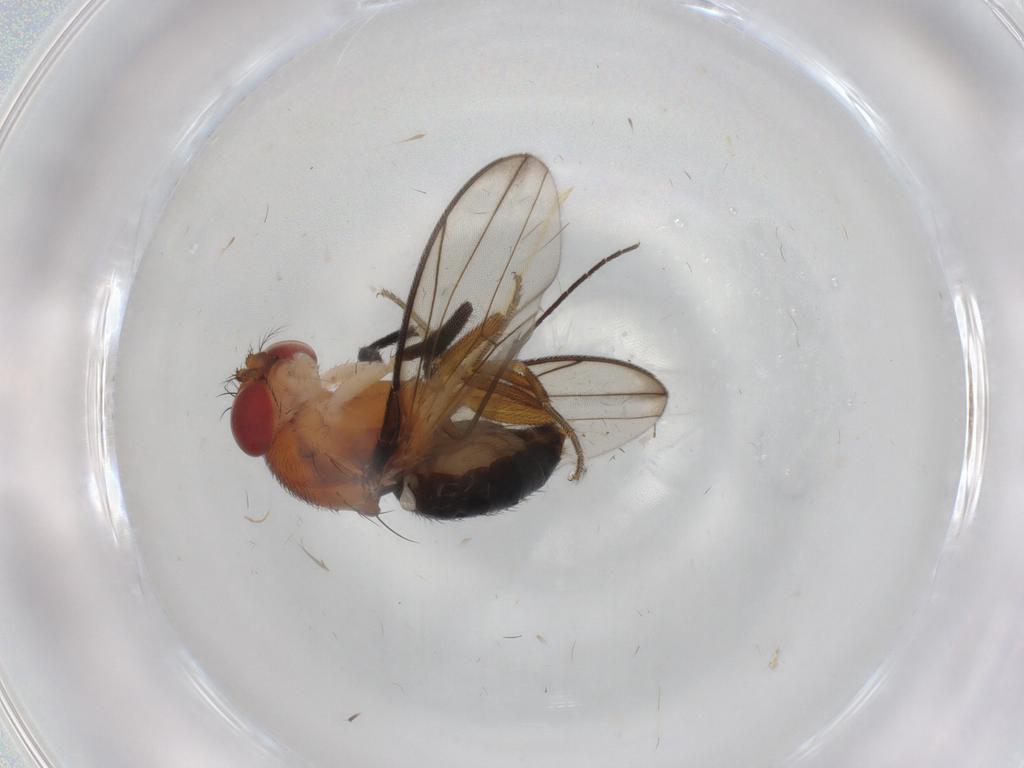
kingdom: Animalia
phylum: Arthropoda
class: Insecta
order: Diptera
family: Drosophilidae
